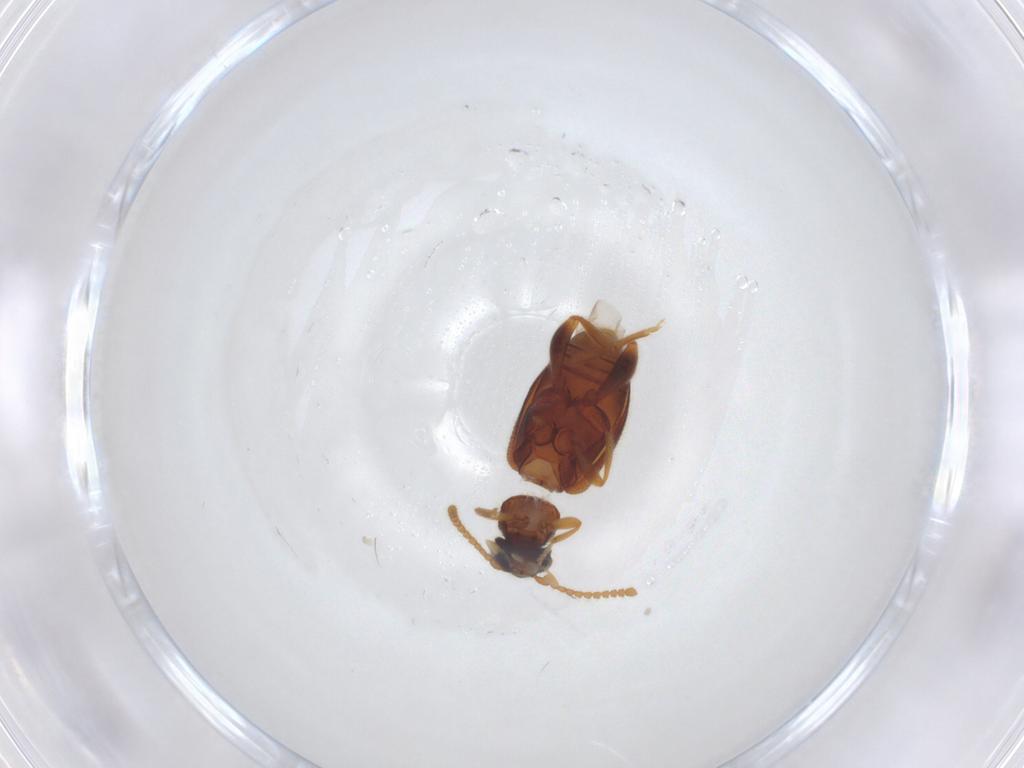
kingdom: Animalia
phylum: Arthropoda
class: Insecta
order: Coleoptera
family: Aderidae
